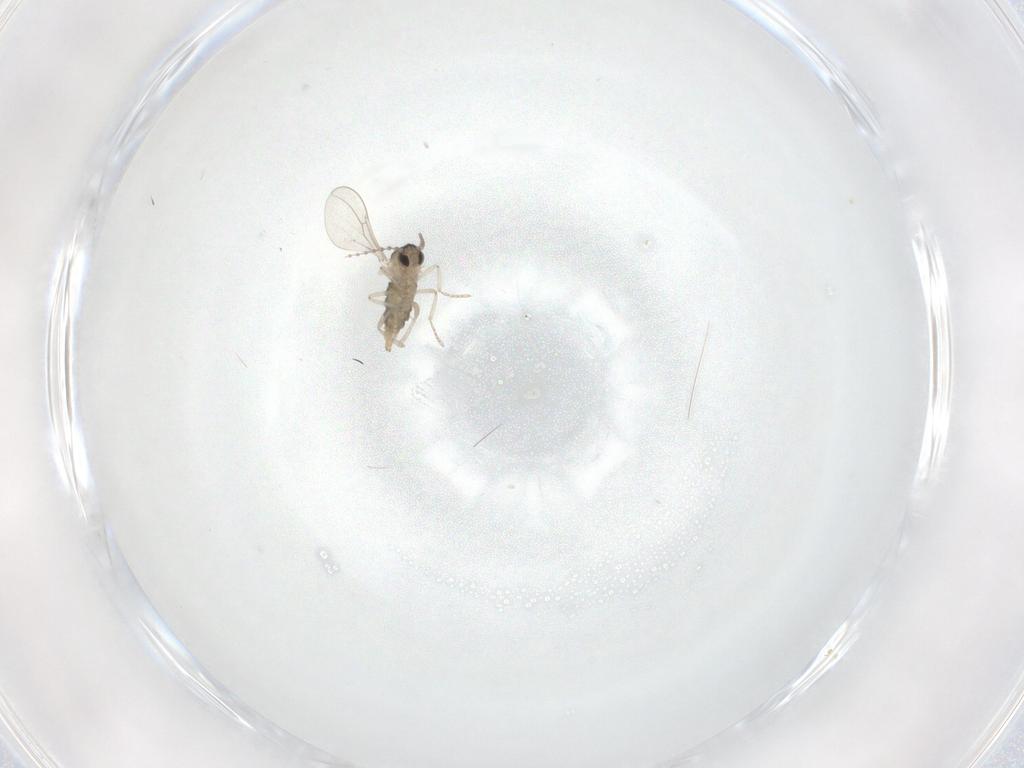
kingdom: Animalia
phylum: Arthropoda
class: Insecta
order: Diptera
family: Cecidomyiidae
